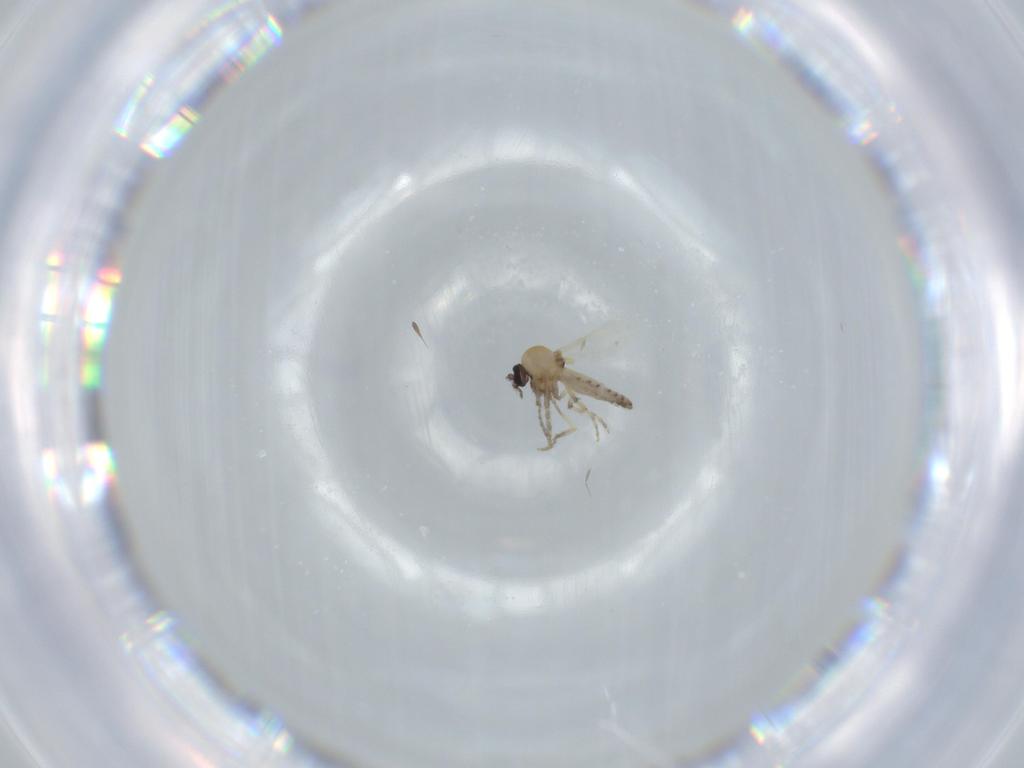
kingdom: Animalia
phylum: Arthropoda
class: Insecta
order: Diptera
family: Ceratopogonidae
